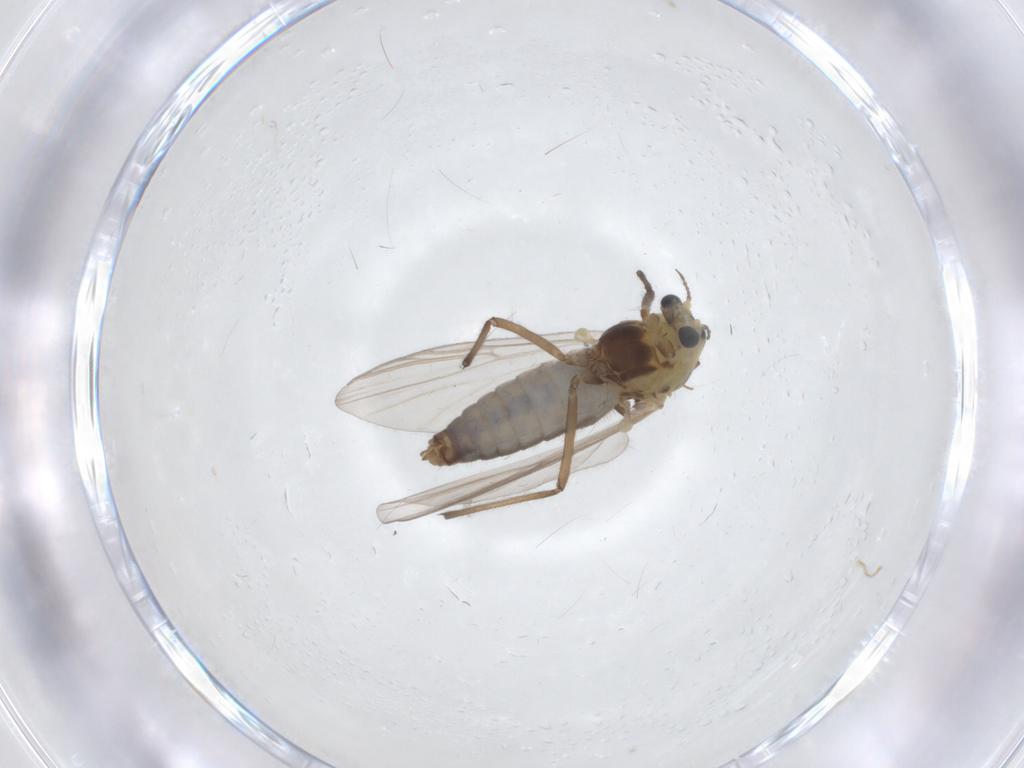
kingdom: Animalia
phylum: Arthropoda
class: Insecta
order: Diptera
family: Chironomidae
